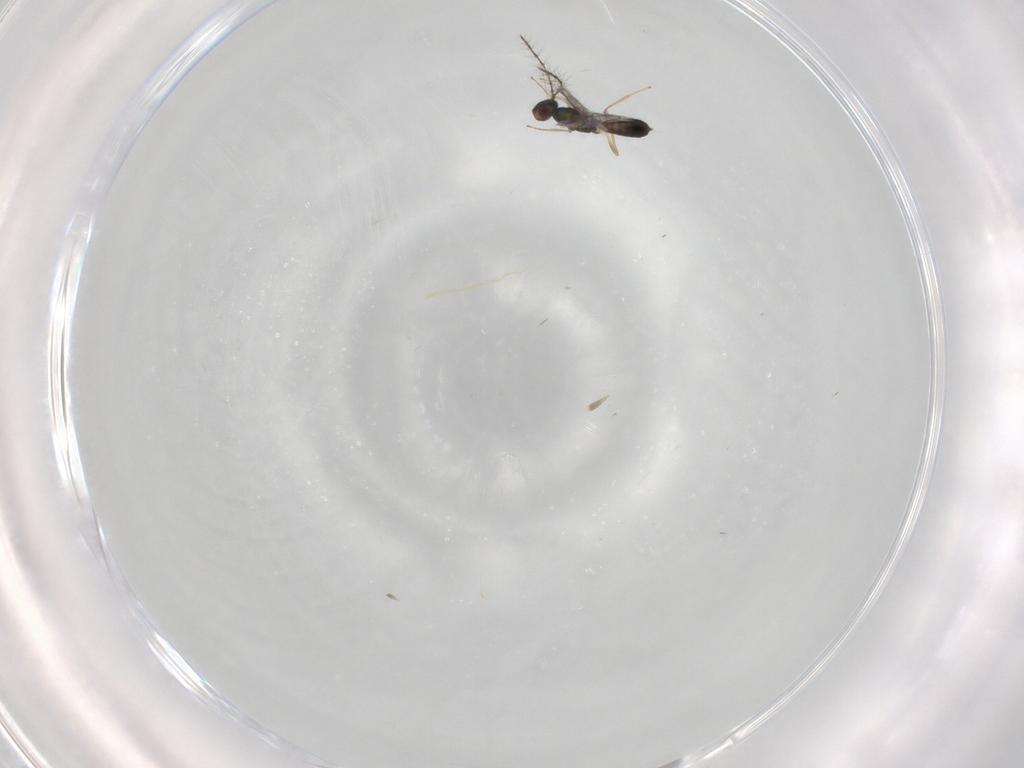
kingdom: Animalia
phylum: Arthropoda
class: Insecta
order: Hymenoptera
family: Pteromalidae
